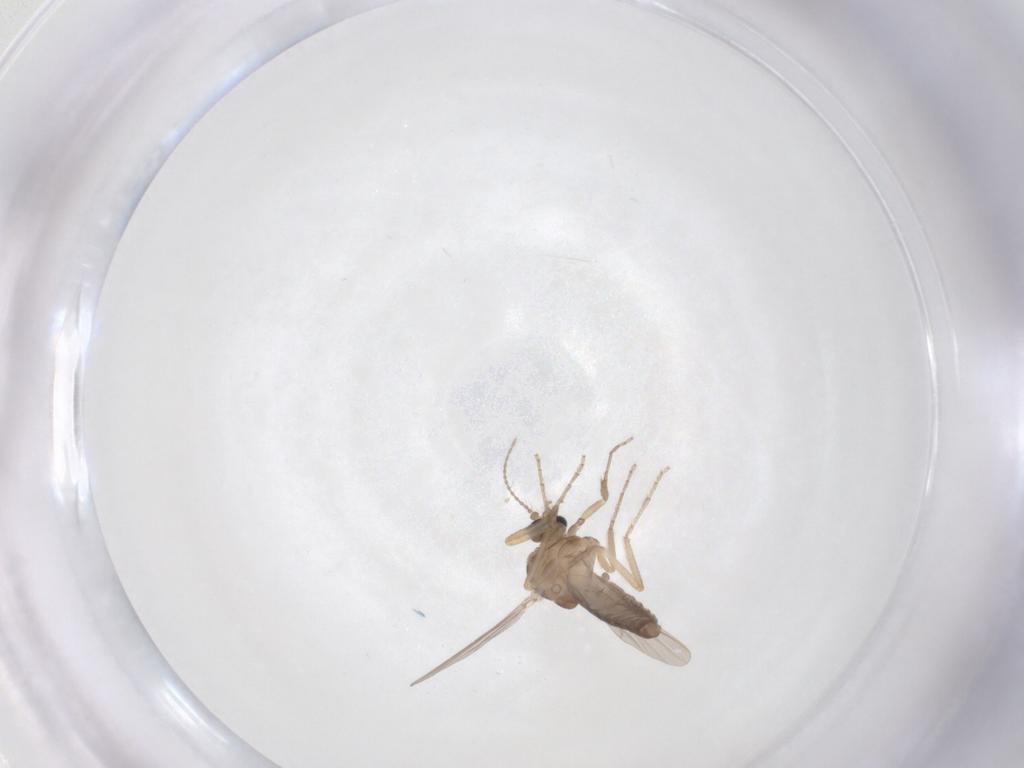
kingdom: Animalia
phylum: Arthropoda
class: Insecta
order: Diptera
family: Ceratopogonidae
